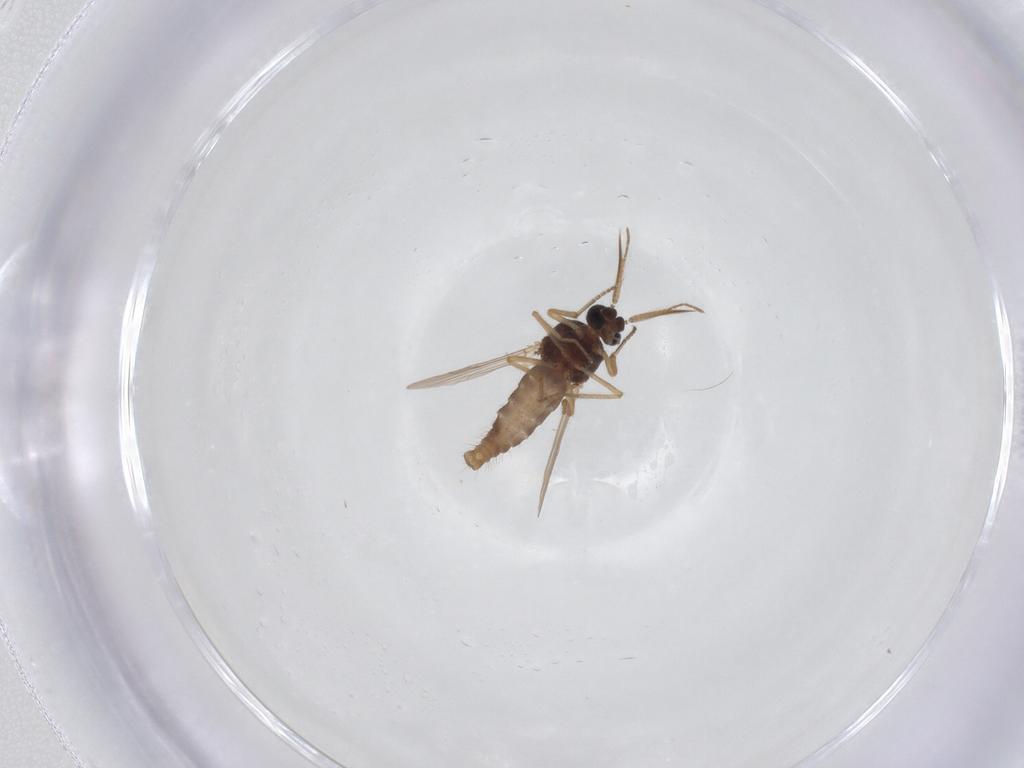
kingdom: Animalia
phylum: Arthropoda
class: Insecta
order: Diptera
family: Ceratopogonidae
